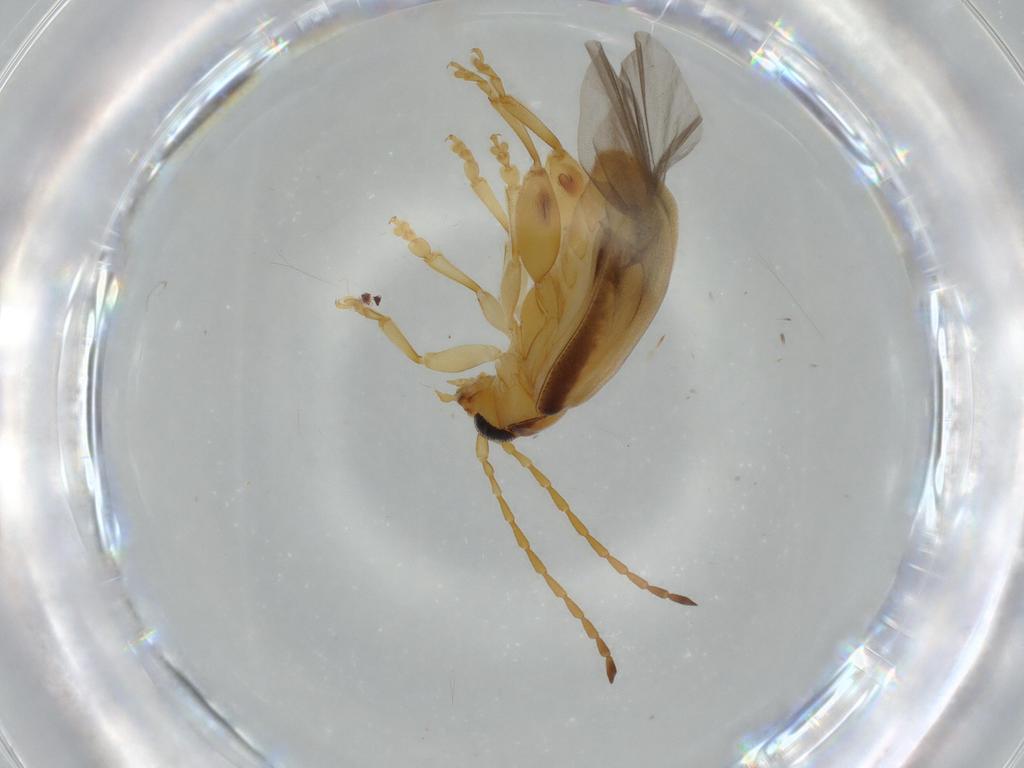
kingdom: Animalia
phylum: Arthropoda
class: Insecta
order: Coleoptera
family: Chrysomelidae
